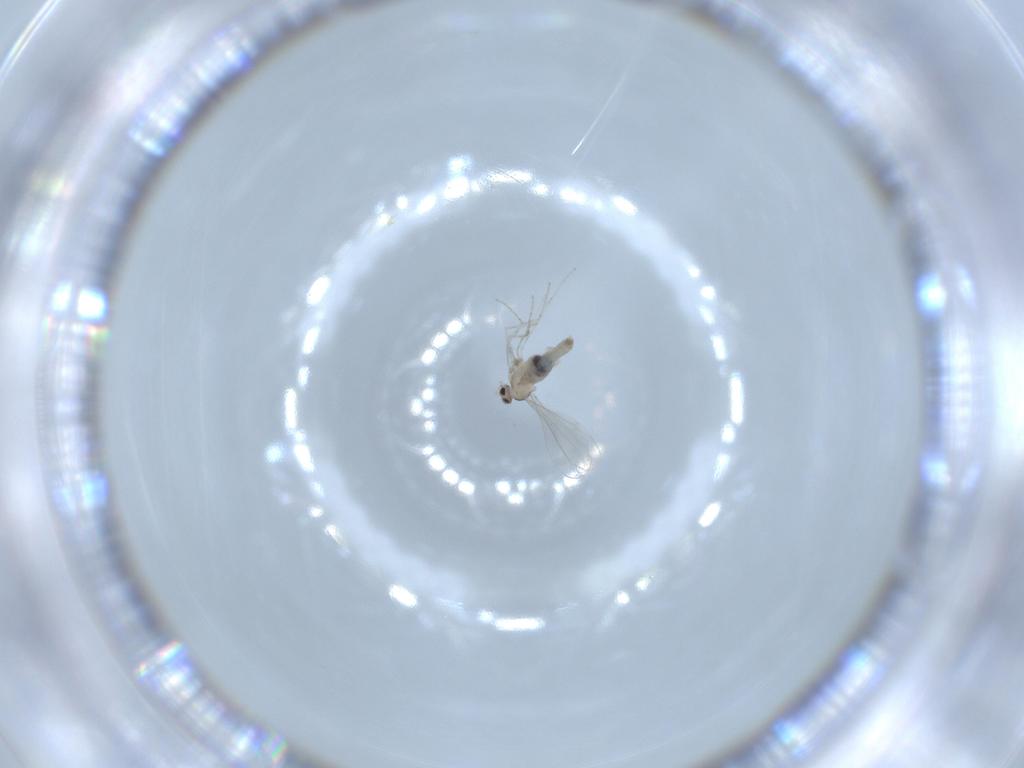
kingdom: Animalia
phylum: Arthropoda
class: Insecta
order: Diptera
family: Cecidomyiidae
